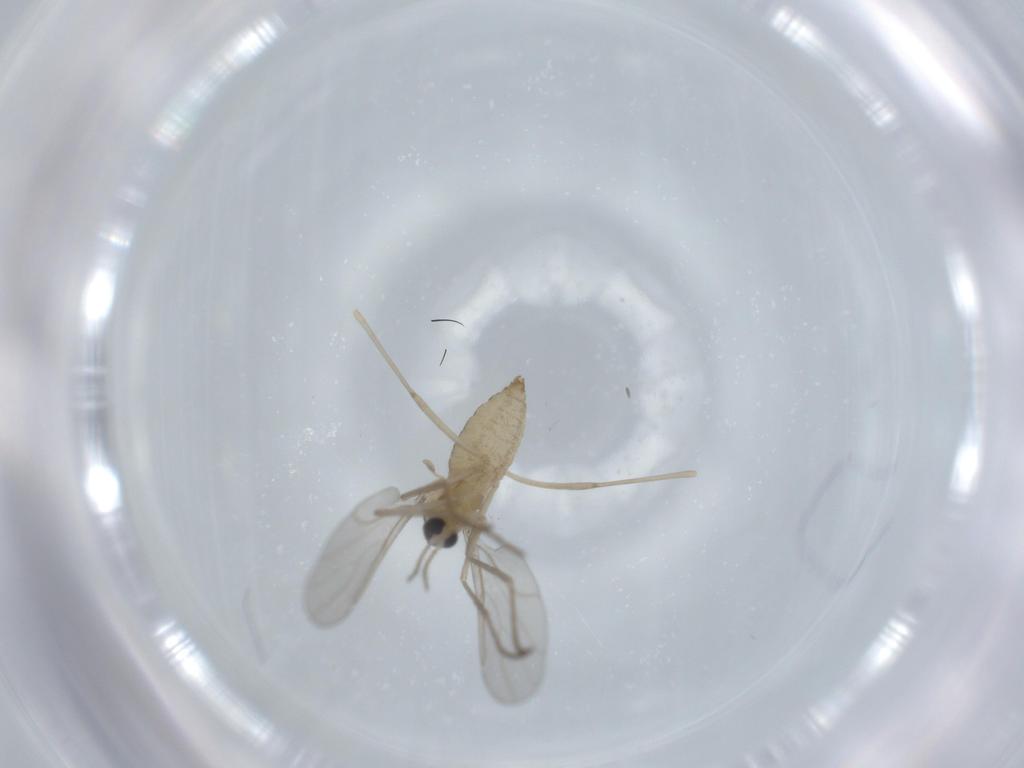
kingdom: Animalia
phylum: Arthropoda
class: Insecta
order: Diptera
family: Cecidomyiidae
